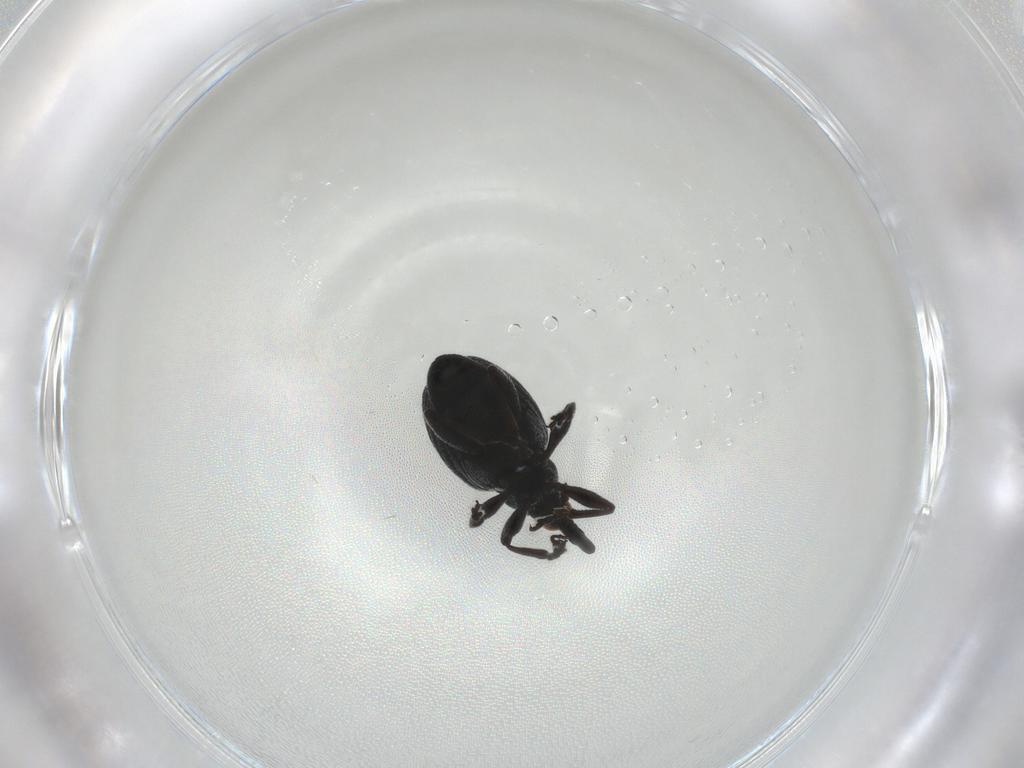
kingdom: Animalia
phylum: Arthropoda
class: Insecta
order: Coleoptera
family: Brentidae
